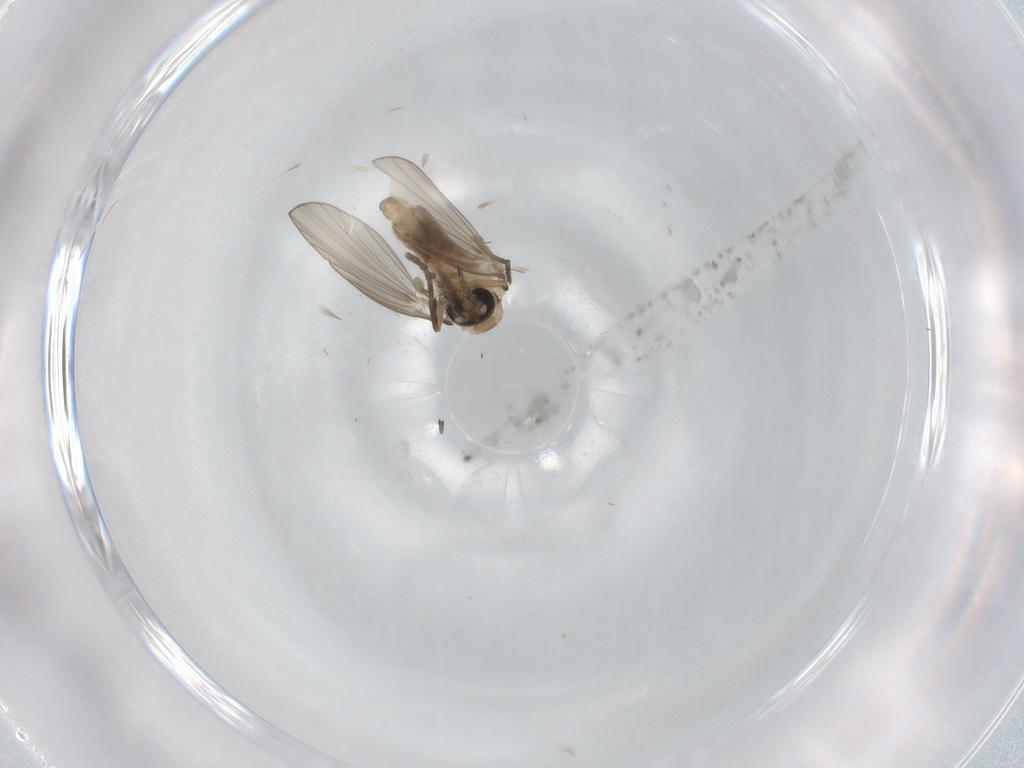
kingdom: Animalia
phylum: Arthropoda
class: Insecta
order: Diptera
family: Psychodidae
